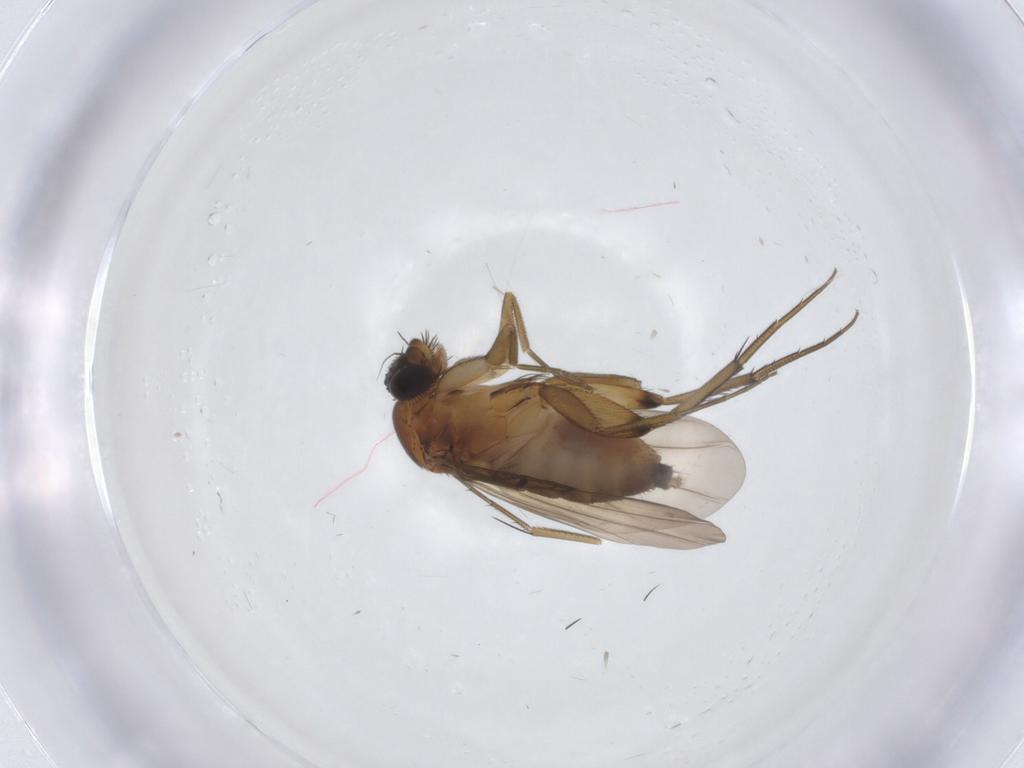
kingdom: Animalia
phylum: Arthropoda
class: Insecta
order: Diptera
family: Phoridae
